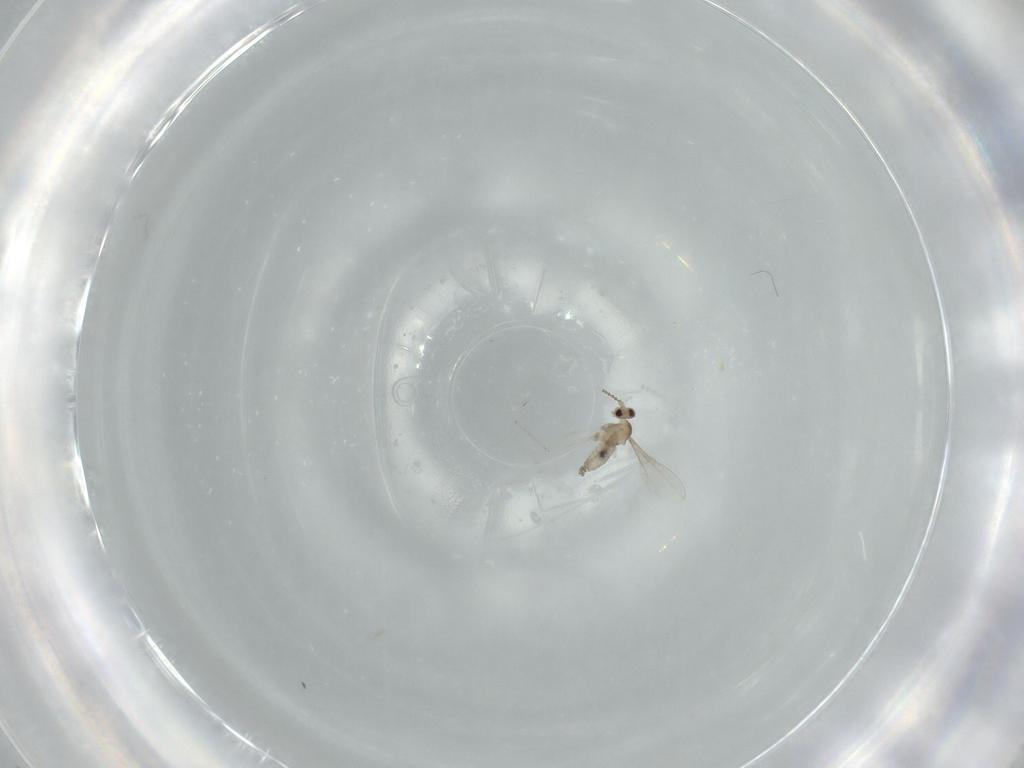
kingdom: Animalia
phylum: Arthropoda
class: Insecta
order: Diptera
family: Cecidomyiidae
